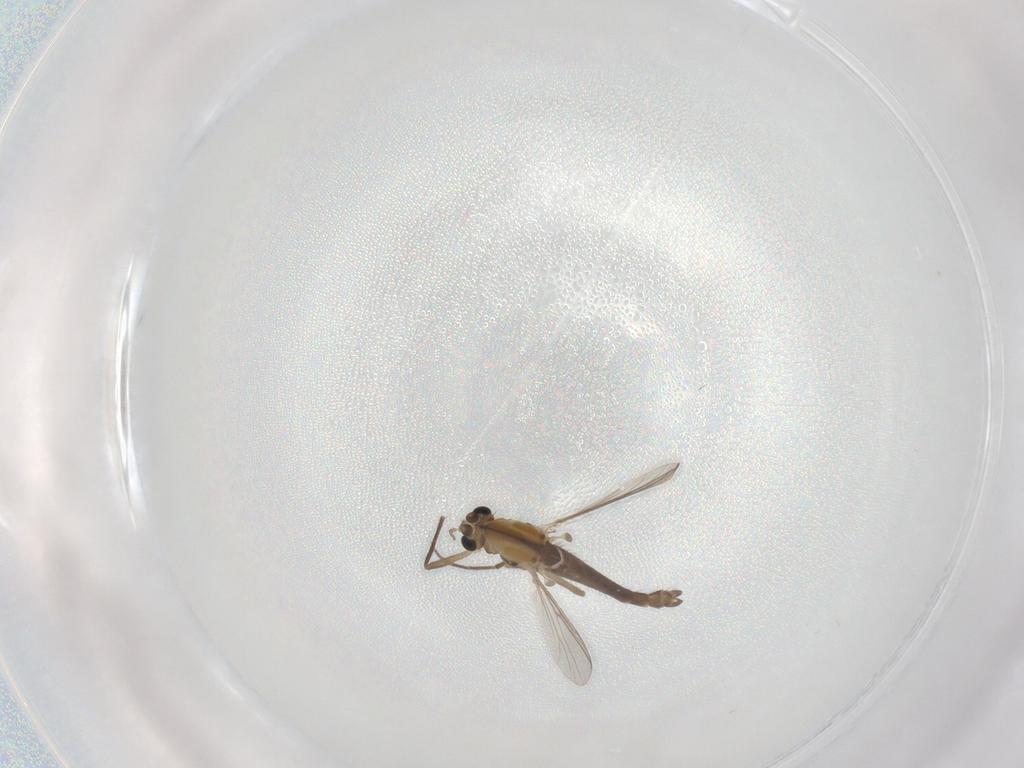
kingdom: Animalia
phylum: Arthropoda
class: Insecta
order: Diptera
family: Chironomidae
